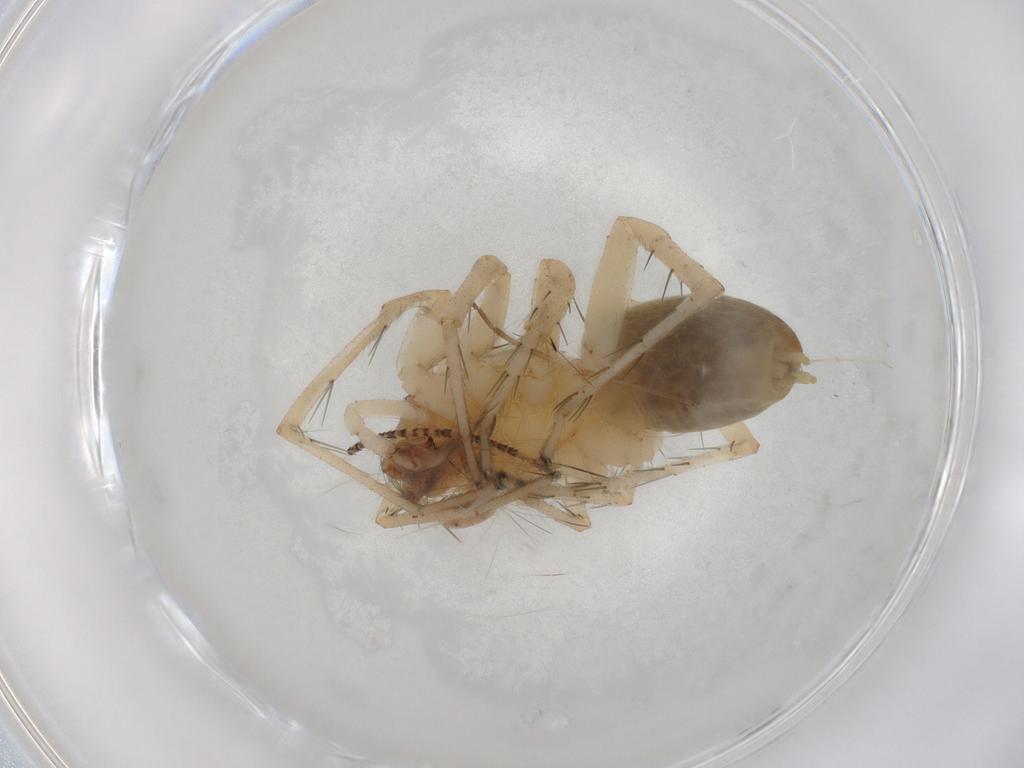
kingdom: Animalia
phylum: Arthropoda
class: Arachnida
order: Araneae
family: Anyphaenidae
